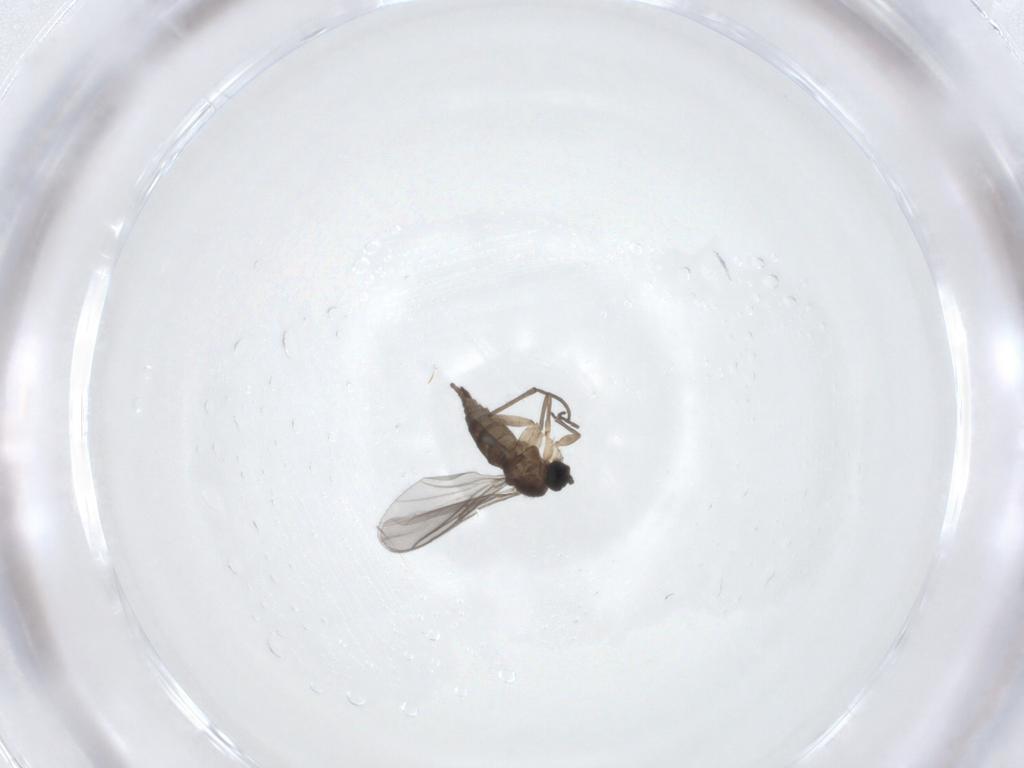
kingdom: Animalia
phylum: Arthropoda
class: Insecta
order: Diptera
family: Sciaridae
